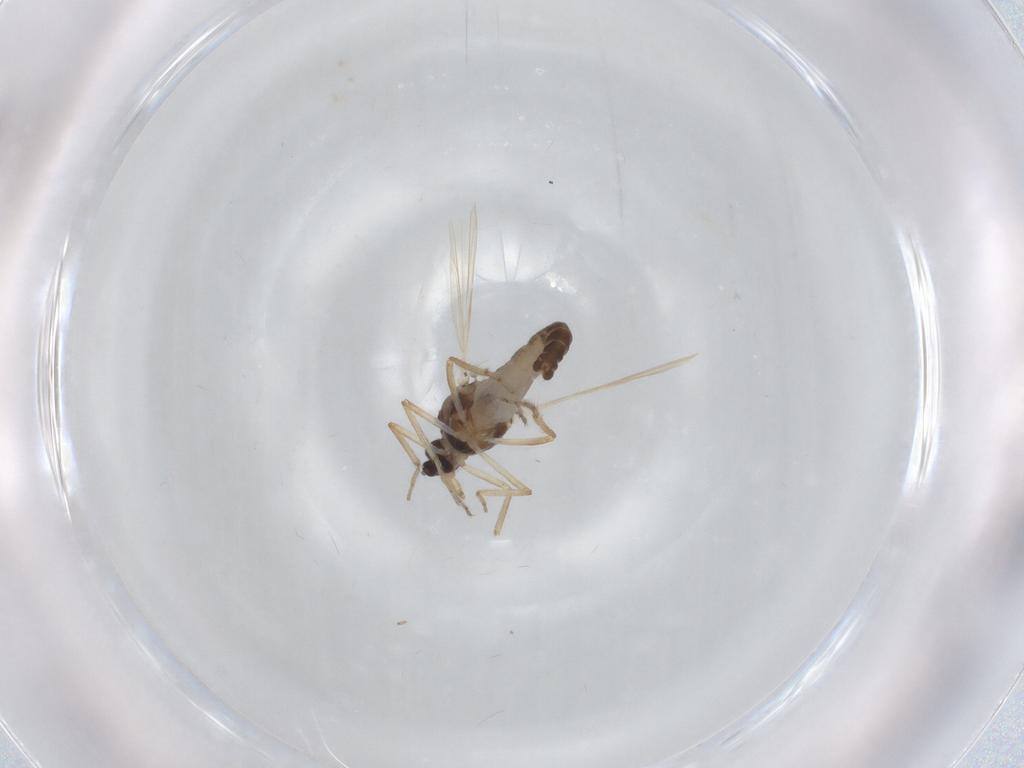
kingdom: Animalia
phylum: Arthropoda
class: Insecta
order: Diptera
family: Ceratopogonidae
